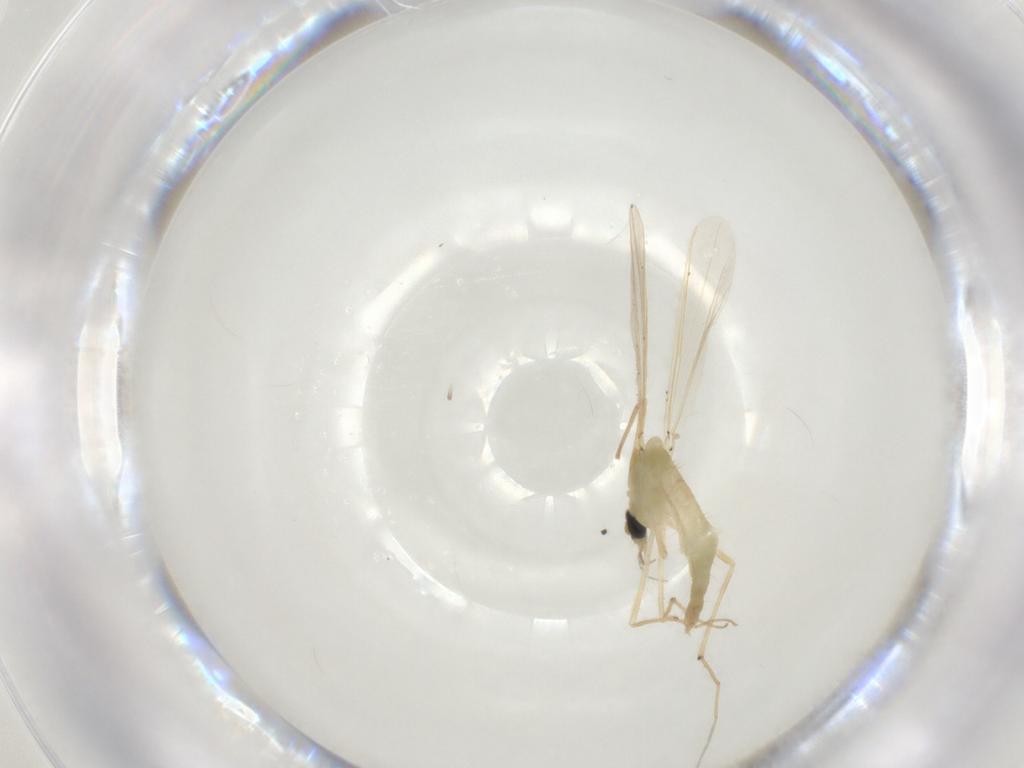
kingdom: Animalia
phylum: Arthropoda
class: Insecta
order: Diptera
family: Chironomidae
